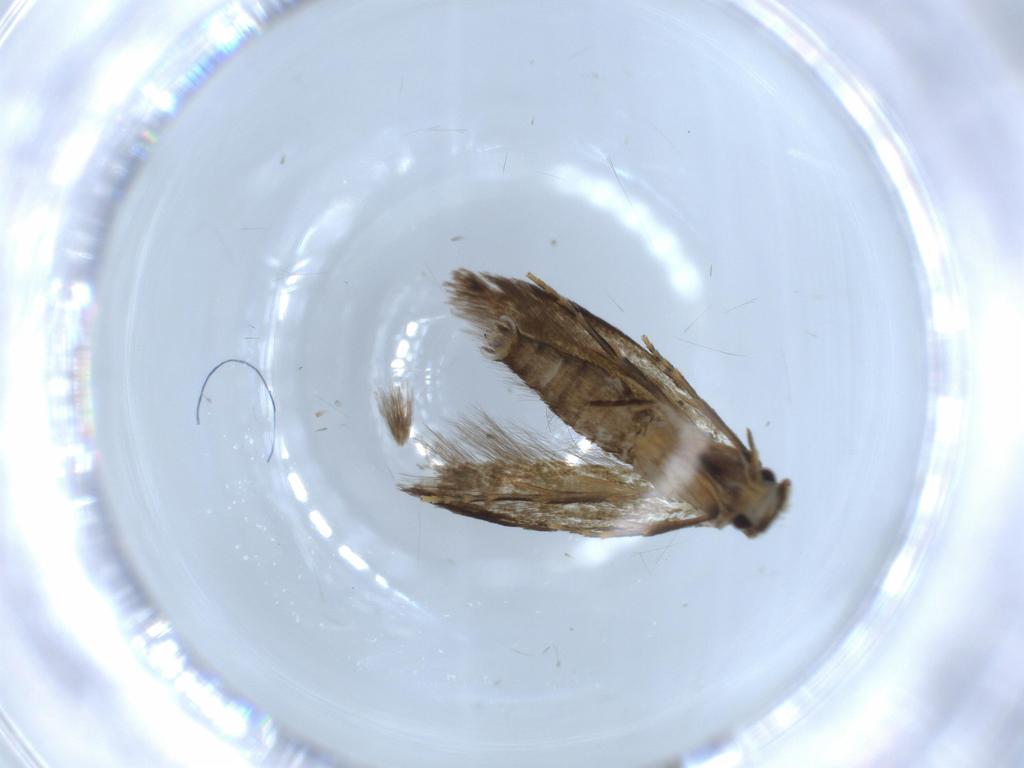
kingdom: Animalia
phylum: Arthropoda
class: Insecta
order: Lepidoptera
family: Tineidae
